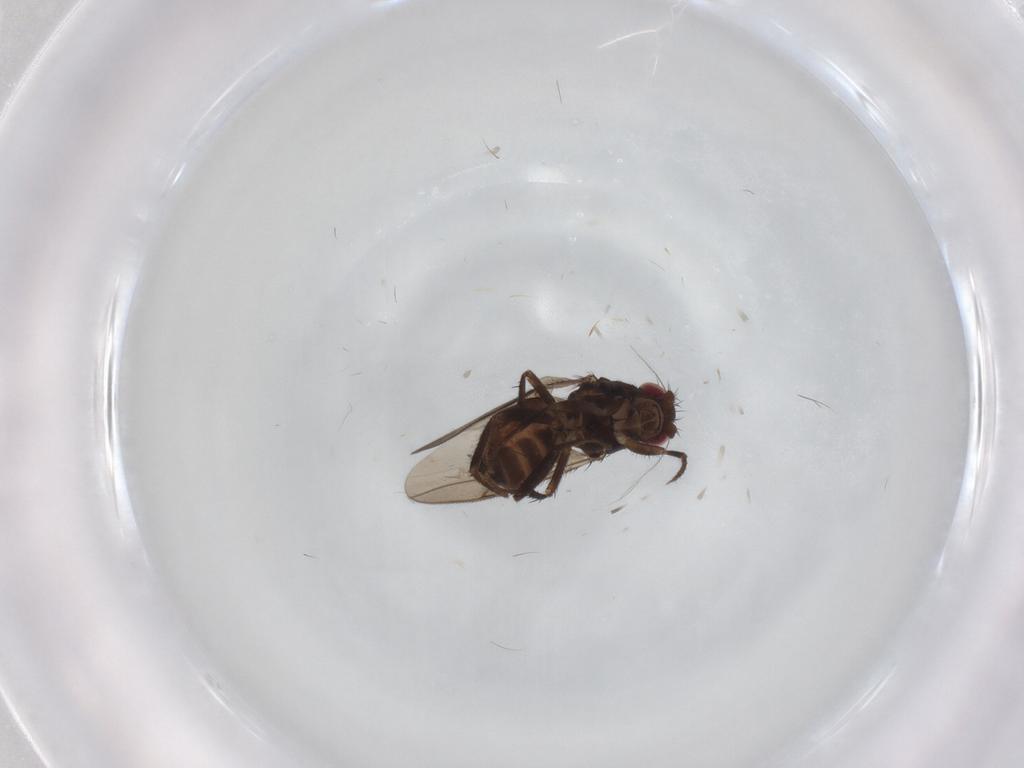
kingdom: Animalia
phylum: Arthropoda
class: Insecta
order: Diptera
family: Sphaeroceridae
